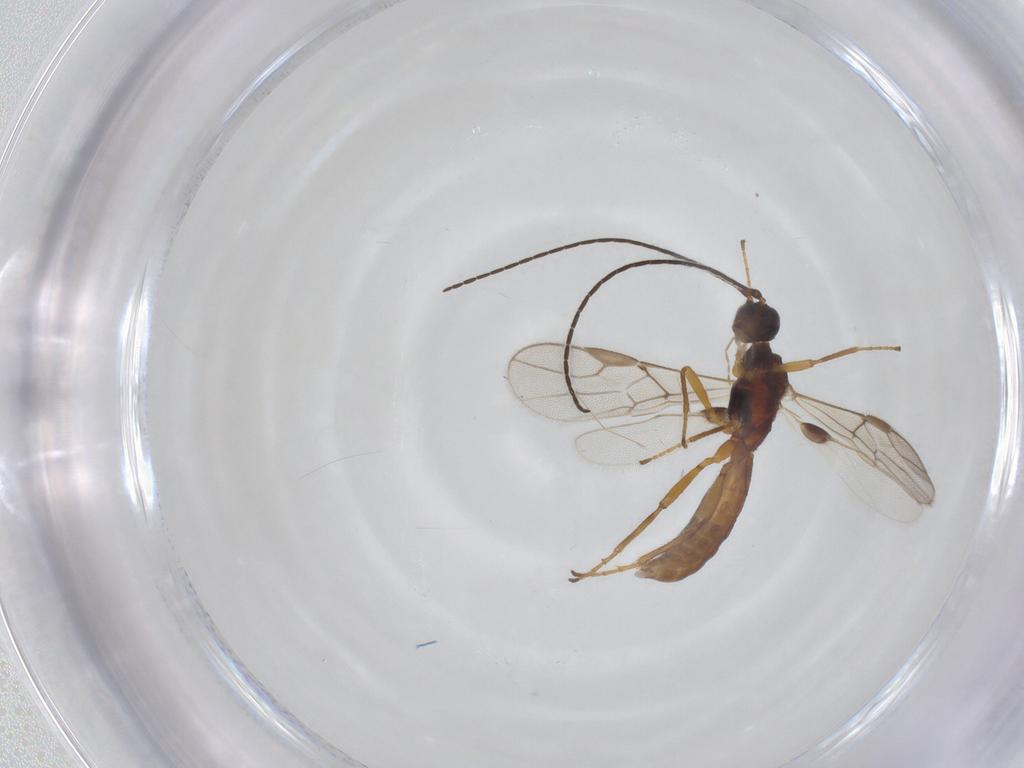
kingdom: Animalia
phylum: Arthropoda
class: Insecta
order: Hymenoptera
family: Braconidae
